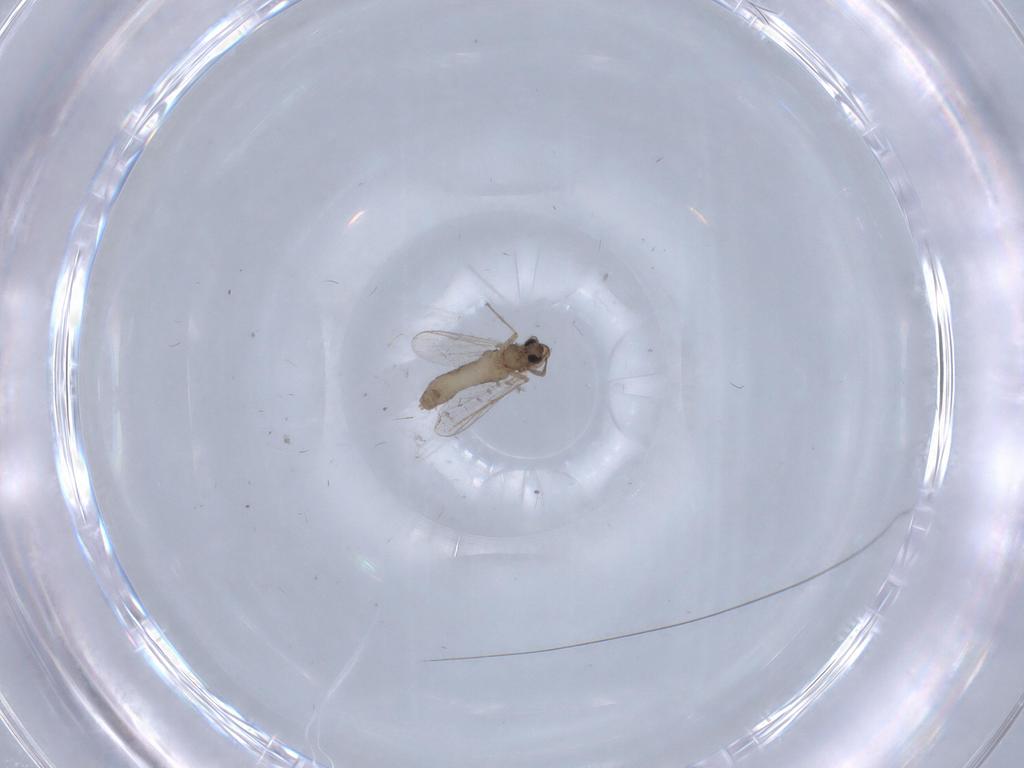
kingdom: Animalia
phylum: Arthropoda
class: Insecta
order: Diptera
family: Chironomidae
